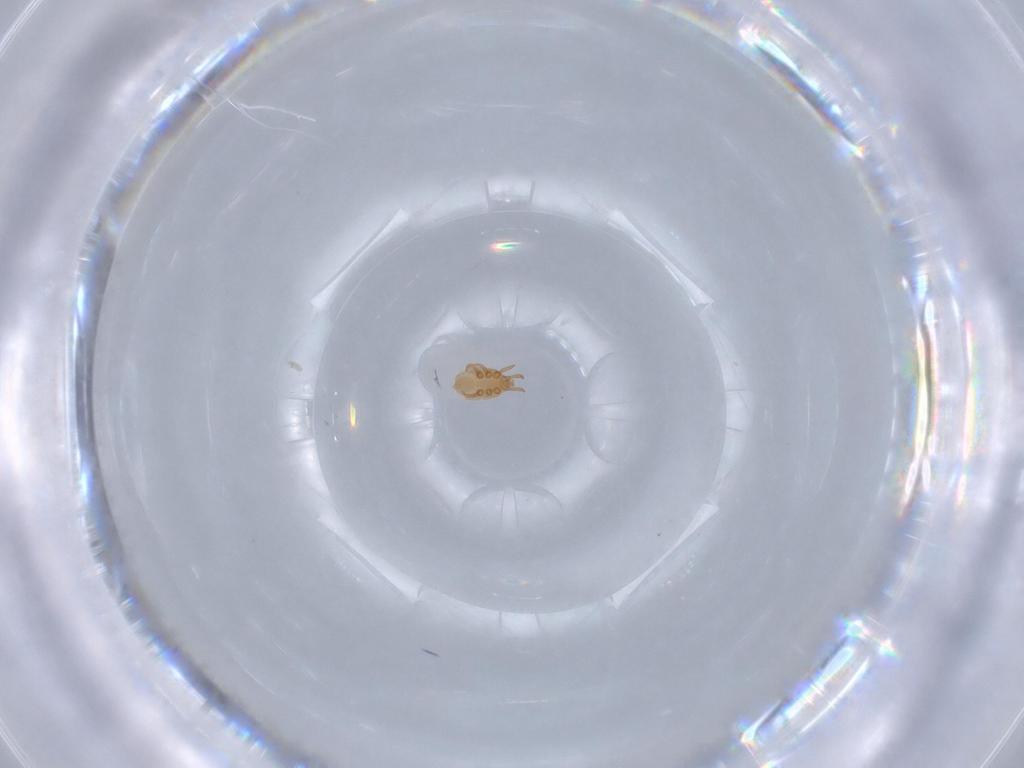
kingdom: Animalia
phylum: Arthropoda
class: Arachnida
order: Mesostigmata
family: Dinychidae
